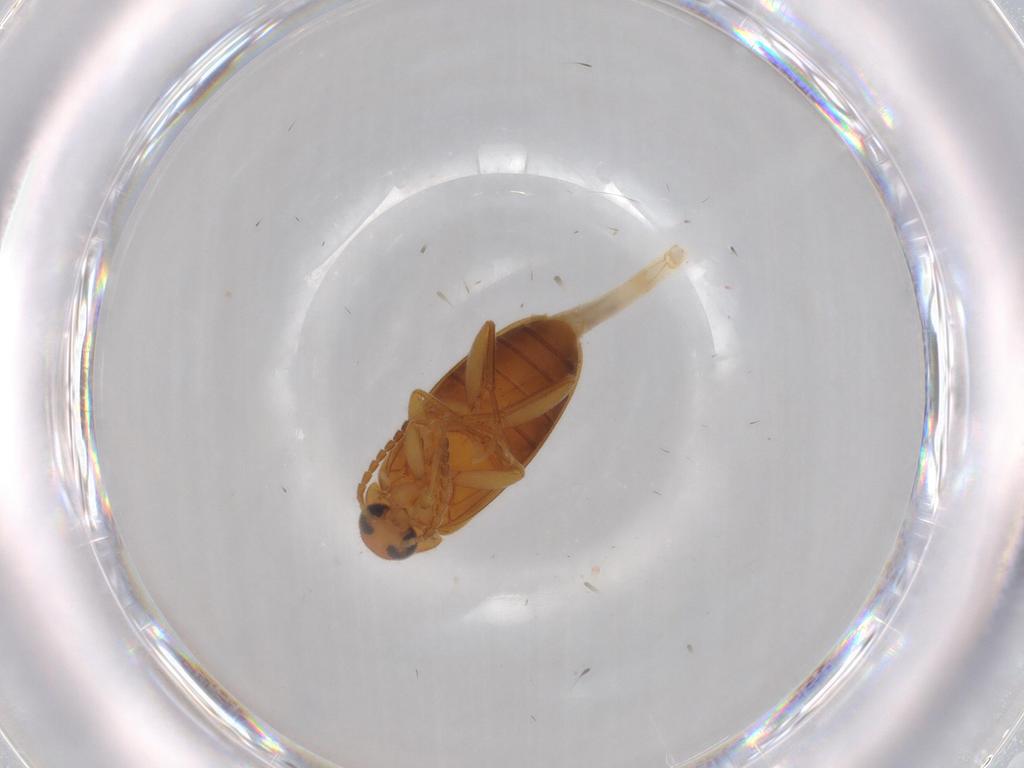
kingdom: Animalia
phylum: Arthropoda
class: Insecta
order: Coleoptera
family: Scraptiidae
